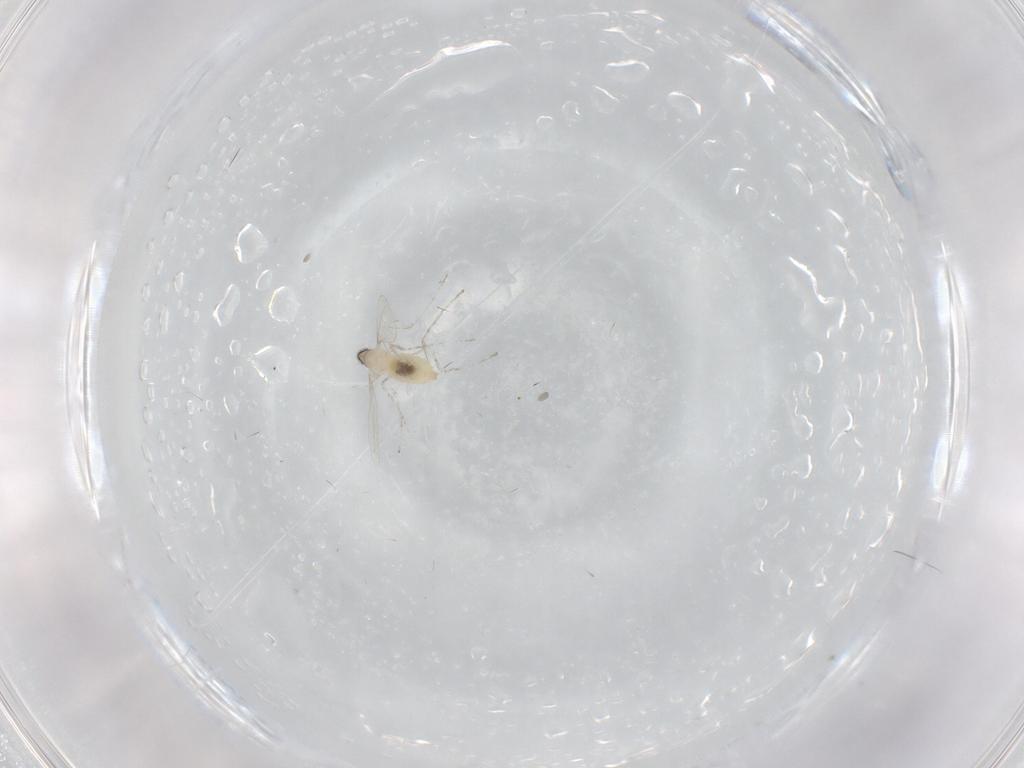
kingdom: Animalia
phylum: Arthropoda
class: Insecta
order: Diptera
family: Cecidomyiidae
